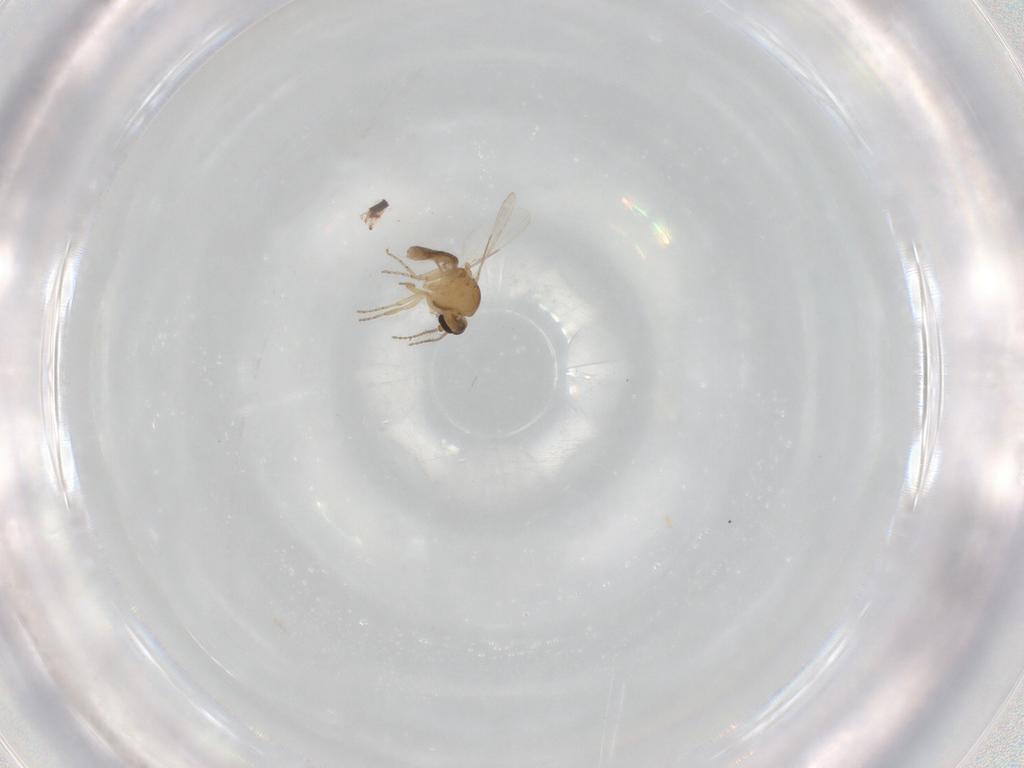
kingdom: Animalia
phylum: Arthropoda
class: Insecta
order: Diptera
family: Ceratopogonidae
